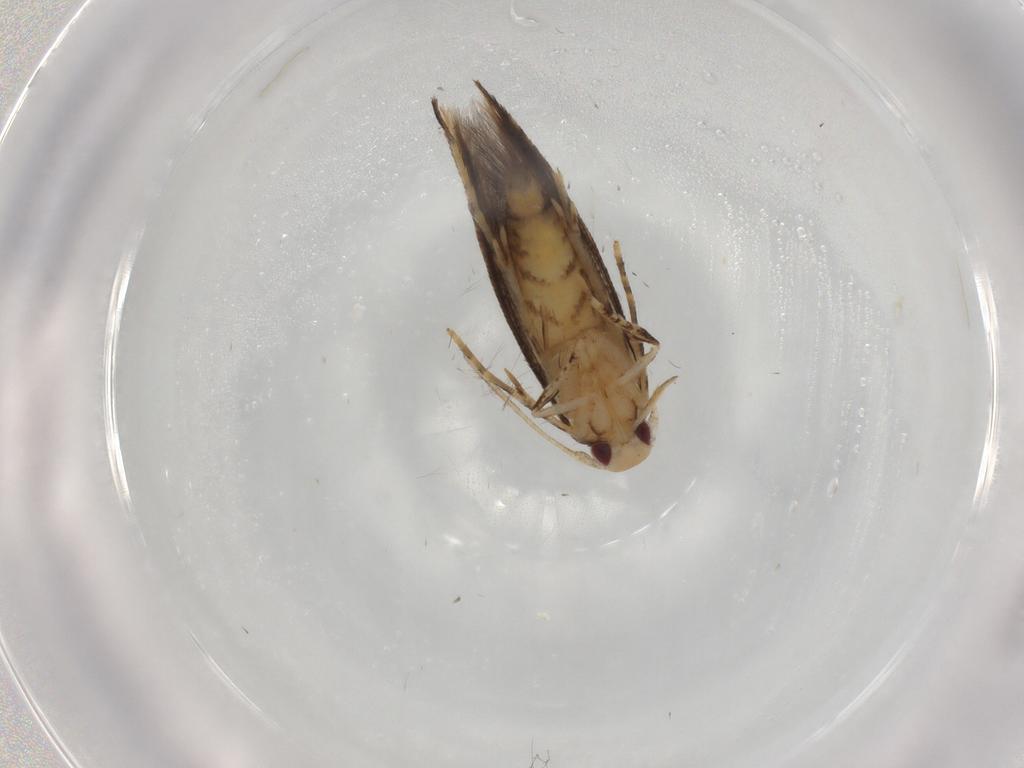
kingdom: Animalia
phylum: Arthropoda
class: Insecta
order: Lepidoptera
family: Momphidae
